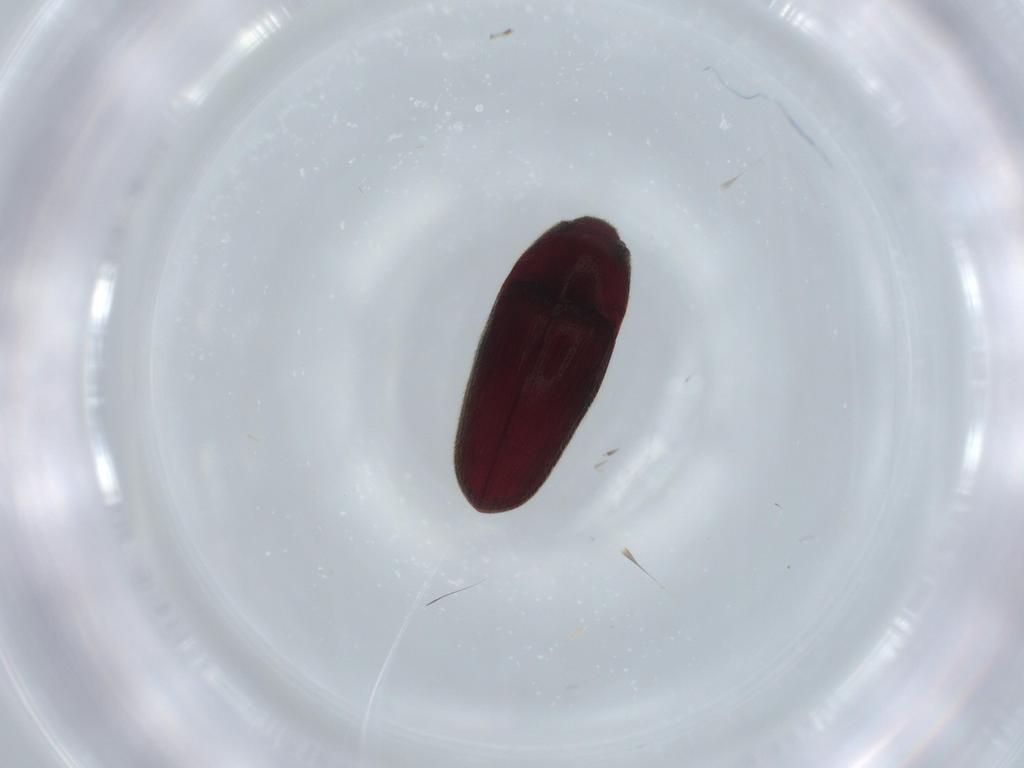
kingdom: Animalia
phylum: Arthropoda
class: Insecta
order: Coleoptera
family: Throscidae
